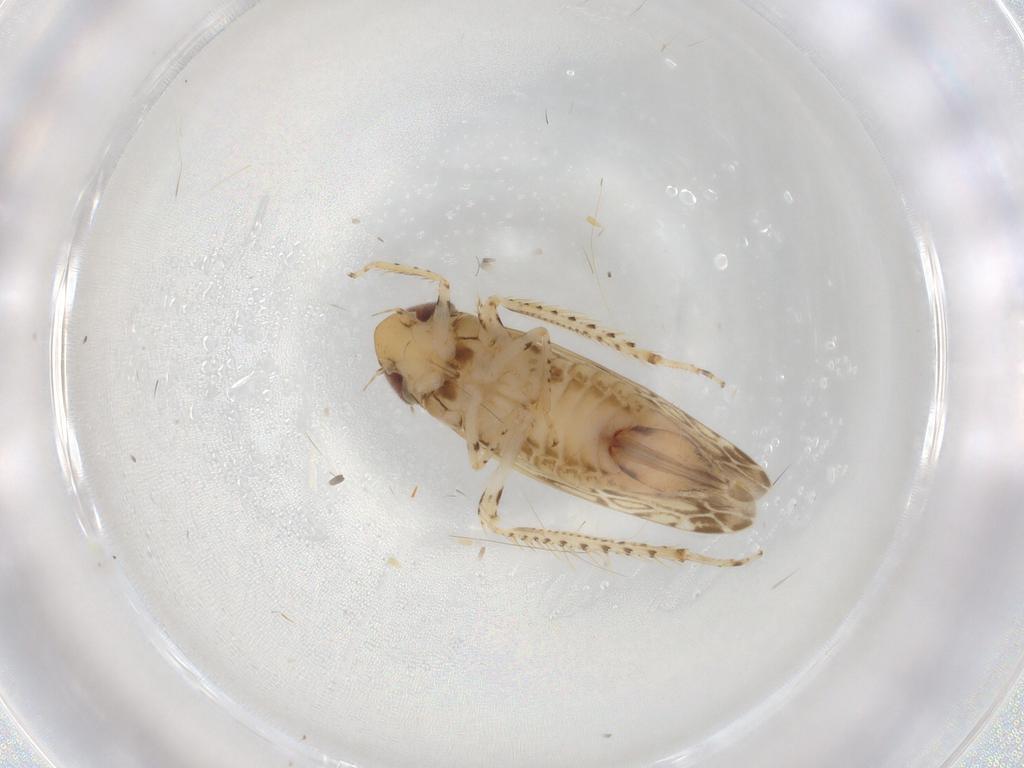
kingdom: Animalia
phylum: Arthropoda
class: Insecta
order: Hemiptera
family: Cicadellidae
